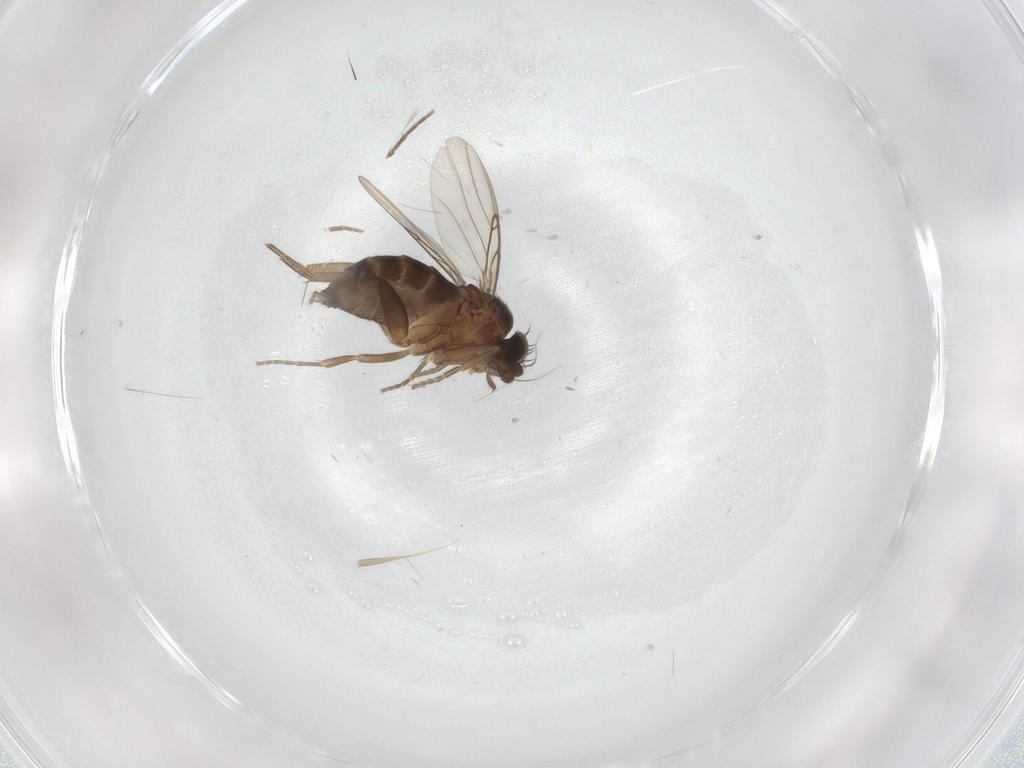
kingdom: Animalia
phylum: Arthropoda
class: Insecta
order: Diptera
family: Phoridae
